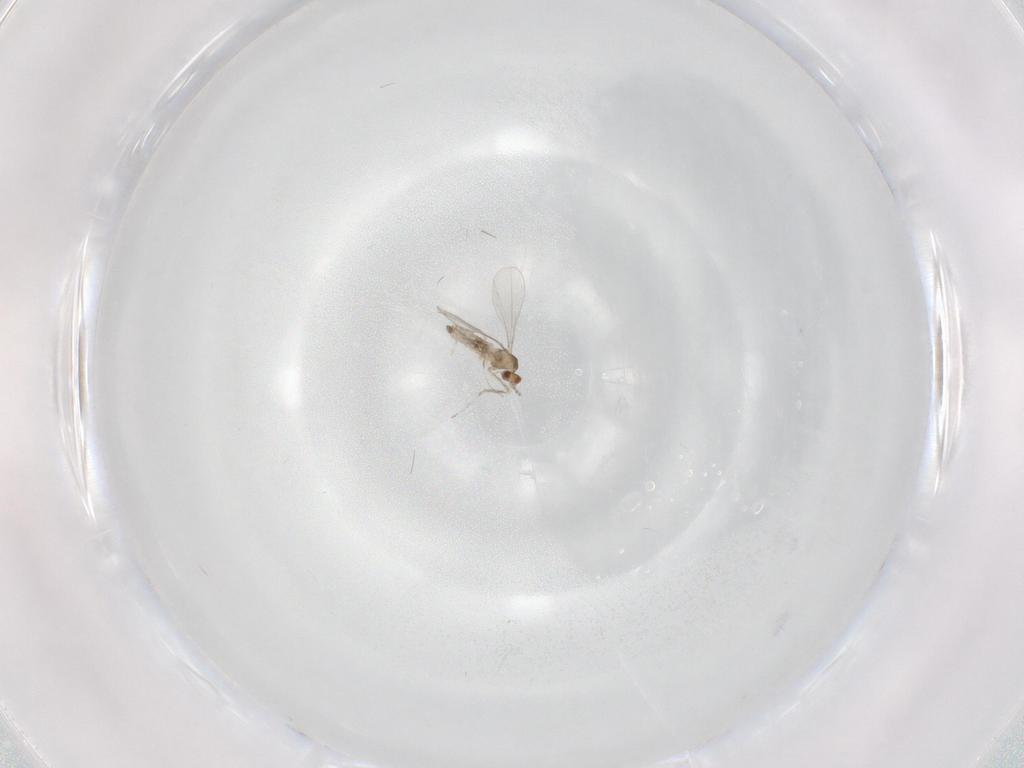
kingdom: Animalia
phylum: Arthropoda
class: Insecta
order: Diptera
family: Cecidomyiidae
